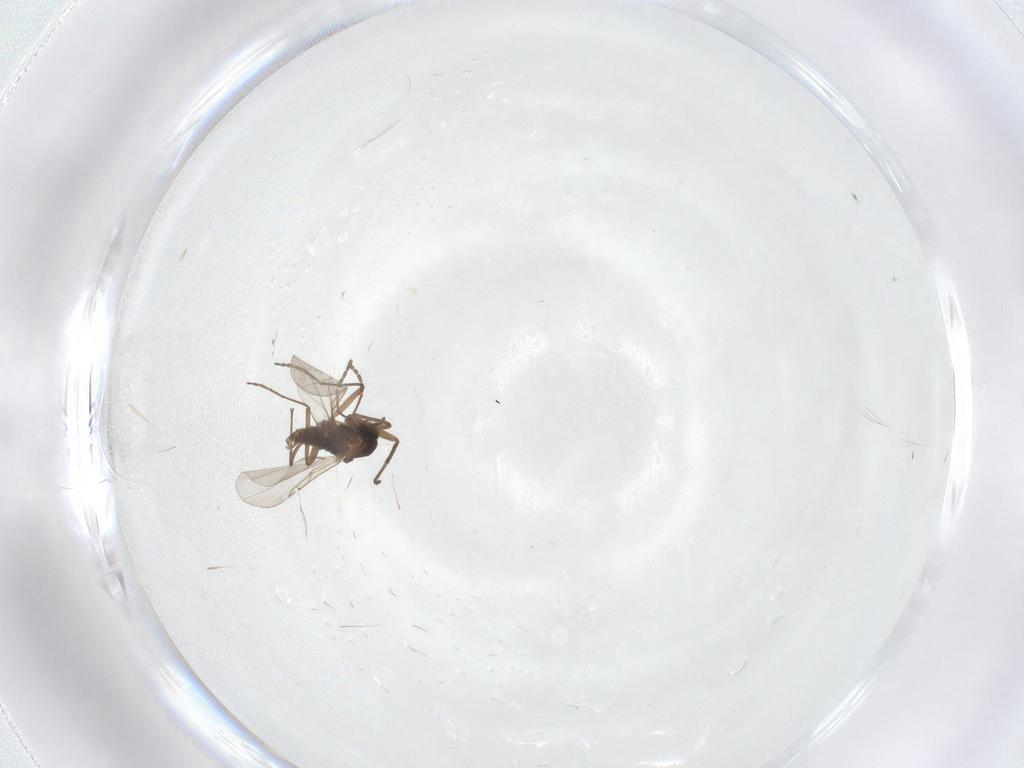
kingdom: Animalia
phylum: Arthropoda
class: Insecta
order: Diptera
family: Cecidomyiidae
